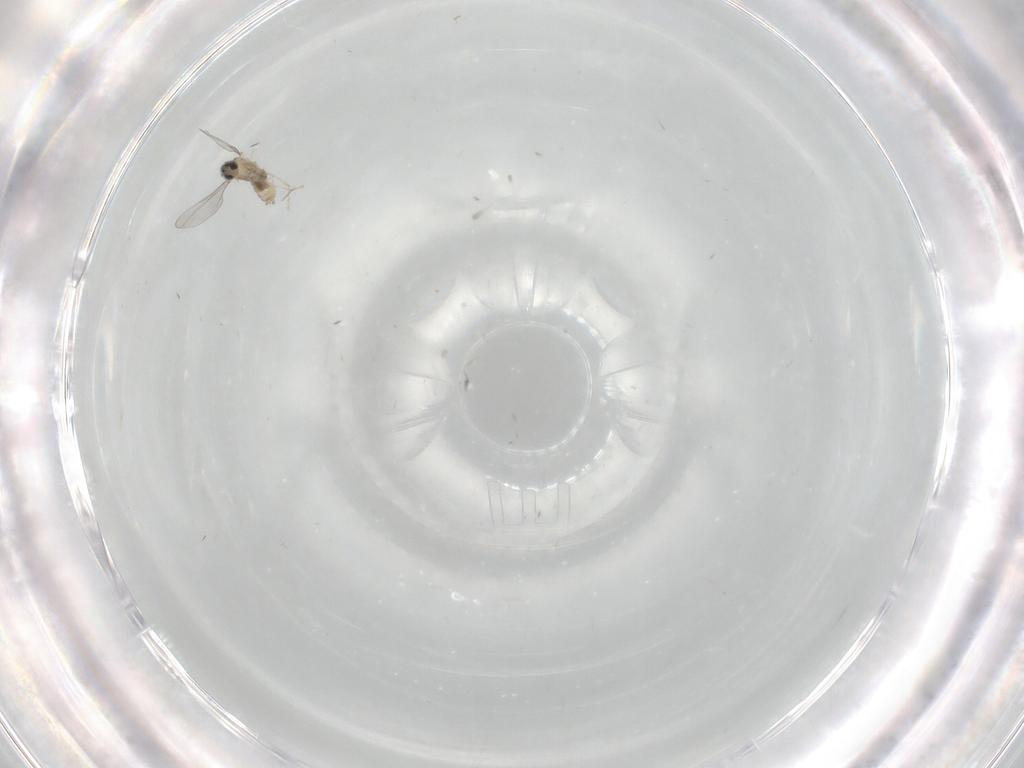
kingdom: Animalia
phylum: Arthropoda
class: Insecta
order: Diptera
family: Cecidomyiidae
